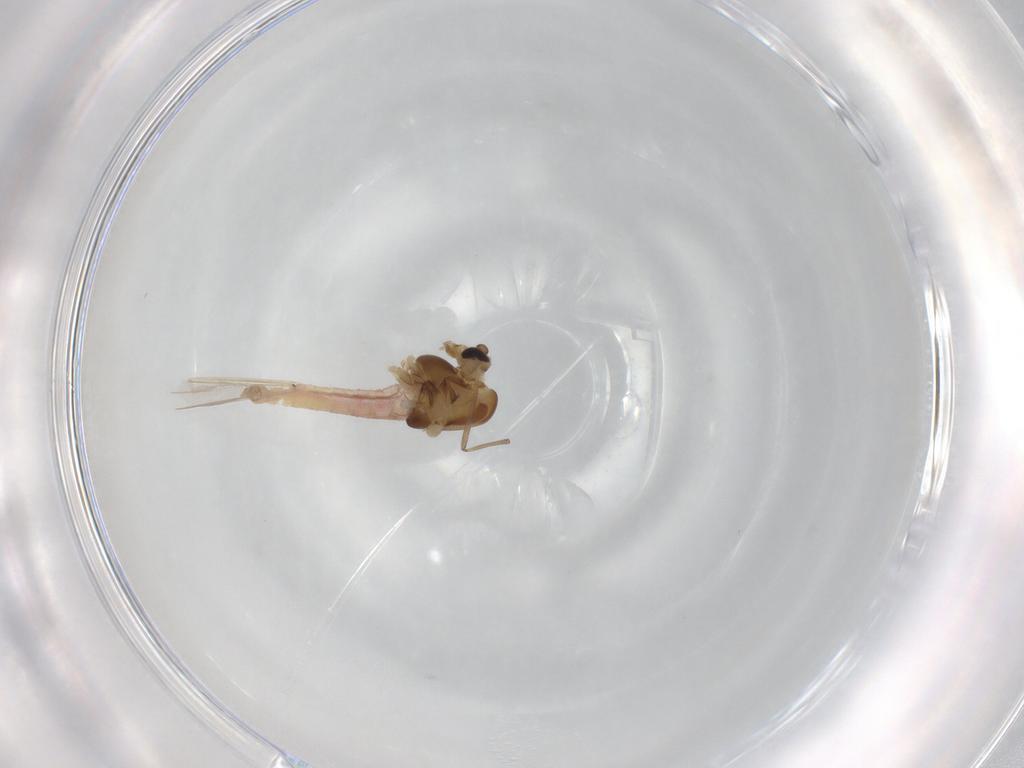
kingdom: Animalia
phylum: Arthropoda
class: Insecta
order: Diptera
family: Chironomidae
